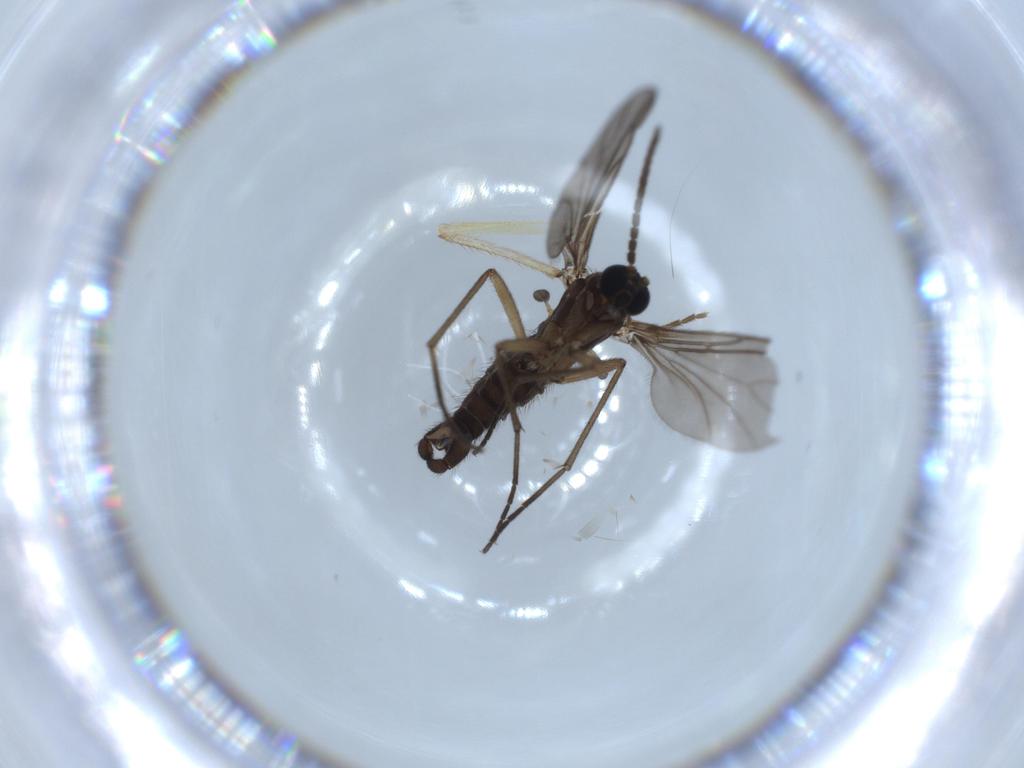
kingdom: Animalia
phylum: Arthropoda
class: Insecta
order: Diptera
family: Sciaridae
